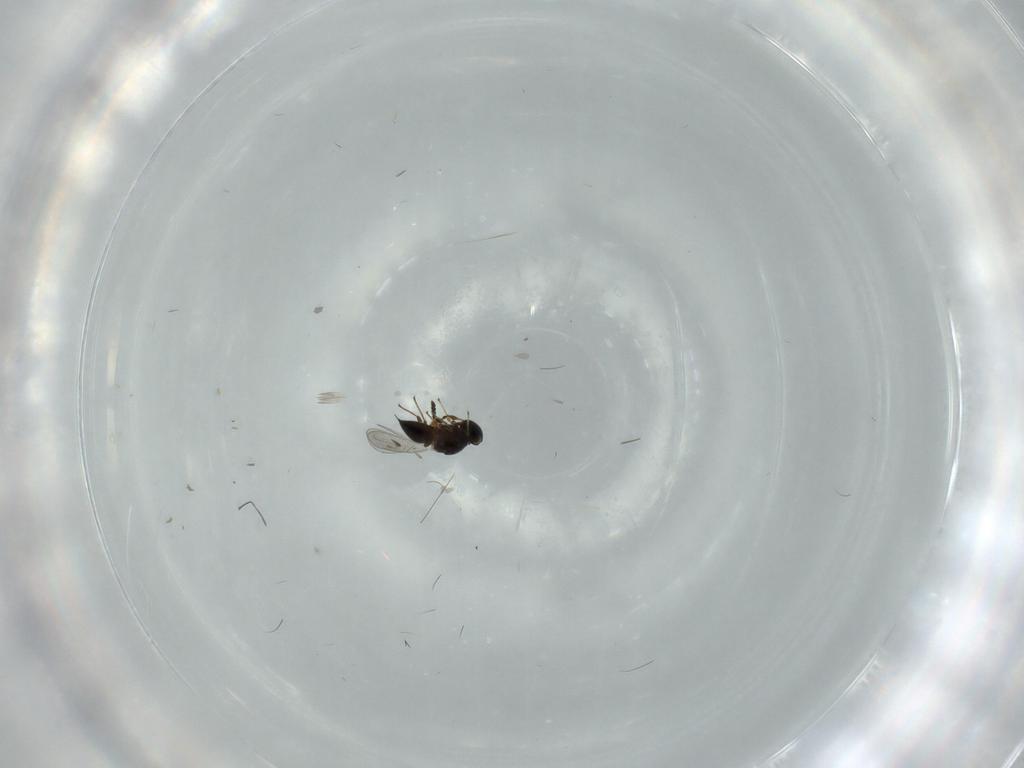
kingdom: Animalia
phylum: Arthropoda
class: Insecta
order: Hymenoptera
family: Platygastridae
